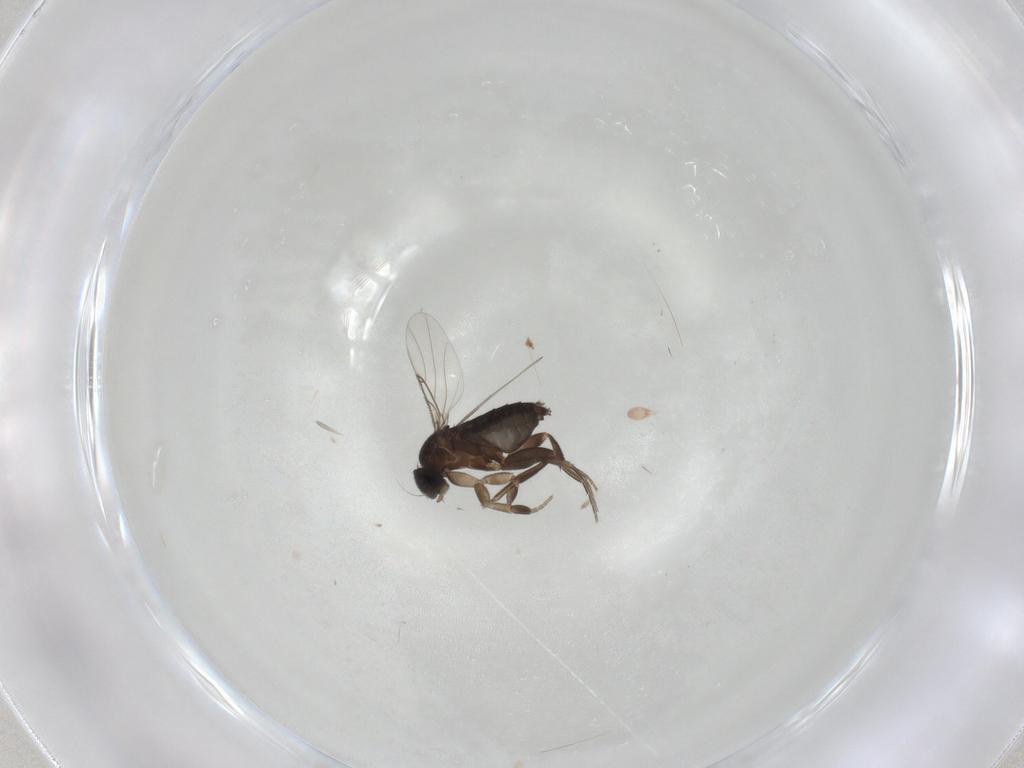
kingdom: Animalia
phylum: Arthropoda
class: Insecta
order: Diptera
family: Phoridae
